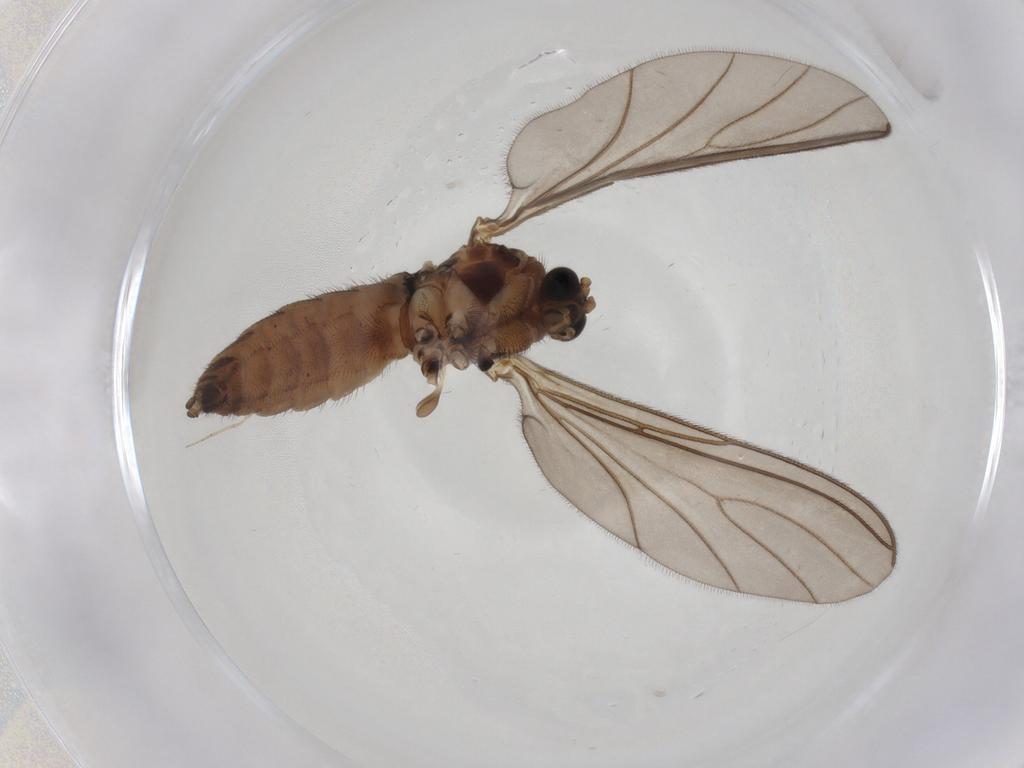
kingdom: Animalia
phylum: Arthropoda
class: Insecta
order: Diptera
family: Sciaridae
